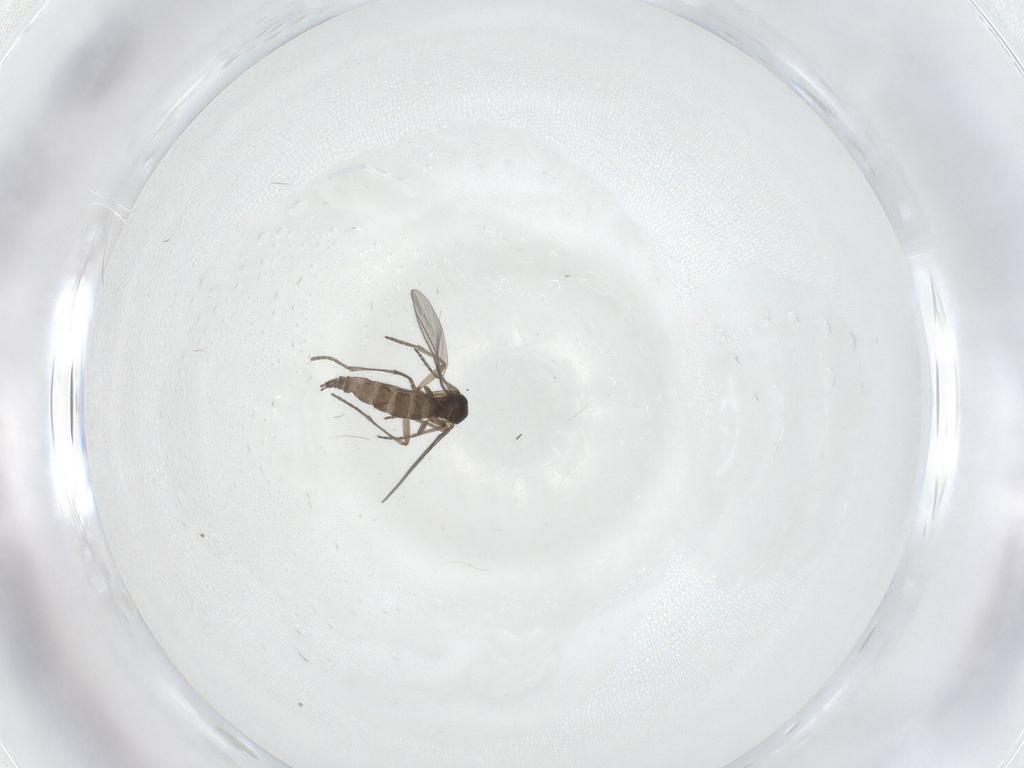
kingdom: Animalia
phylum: Arthropoda
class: Insecta
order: Diptera
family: Sciaridae
